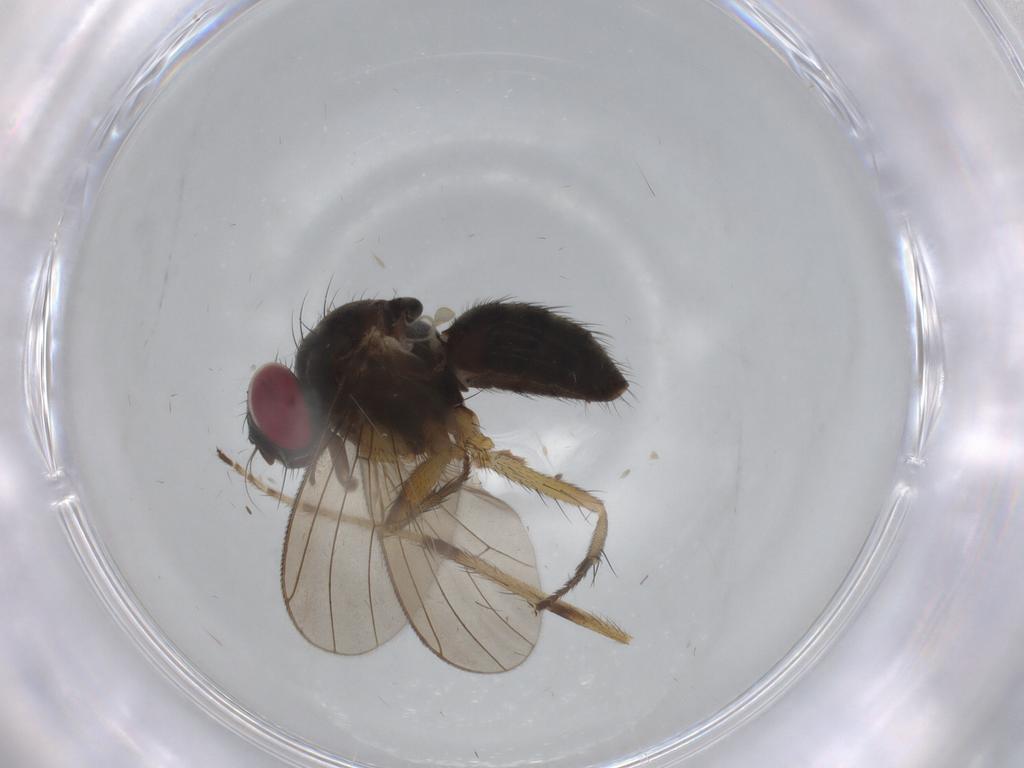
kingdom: Animalia
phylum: Arthropoda
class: Insecta
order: Diptera
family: Muscidae
